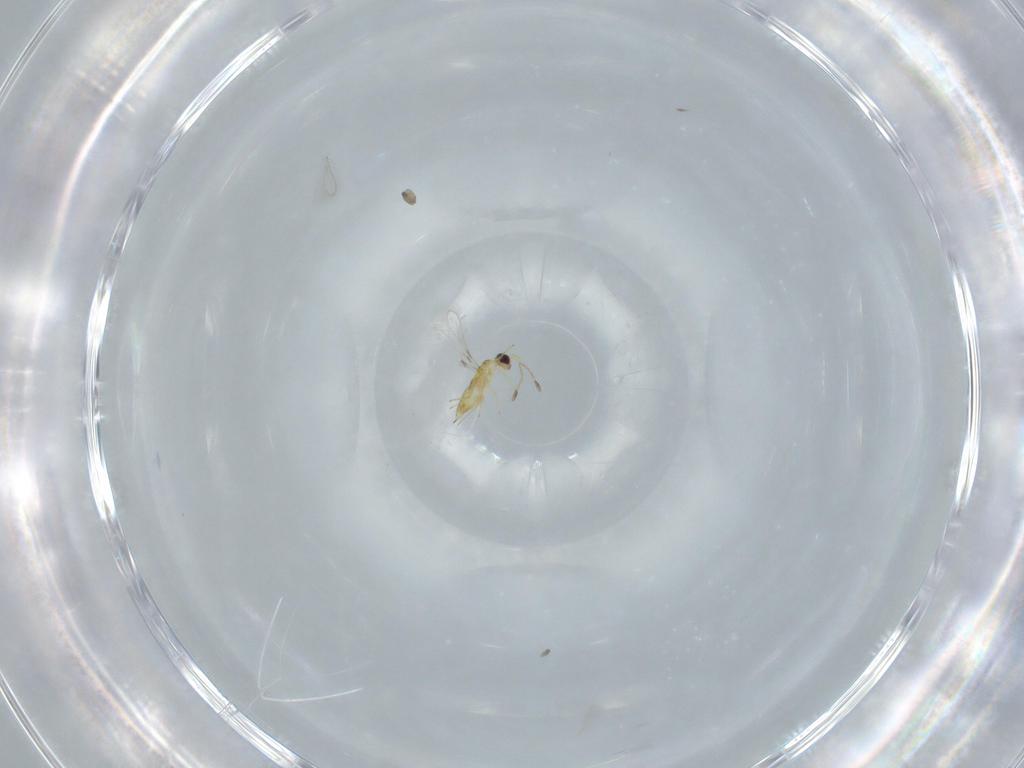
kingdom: Animalia
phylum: Arthropoda
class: Insecta
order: Hymenoptera
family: Mymaridae
